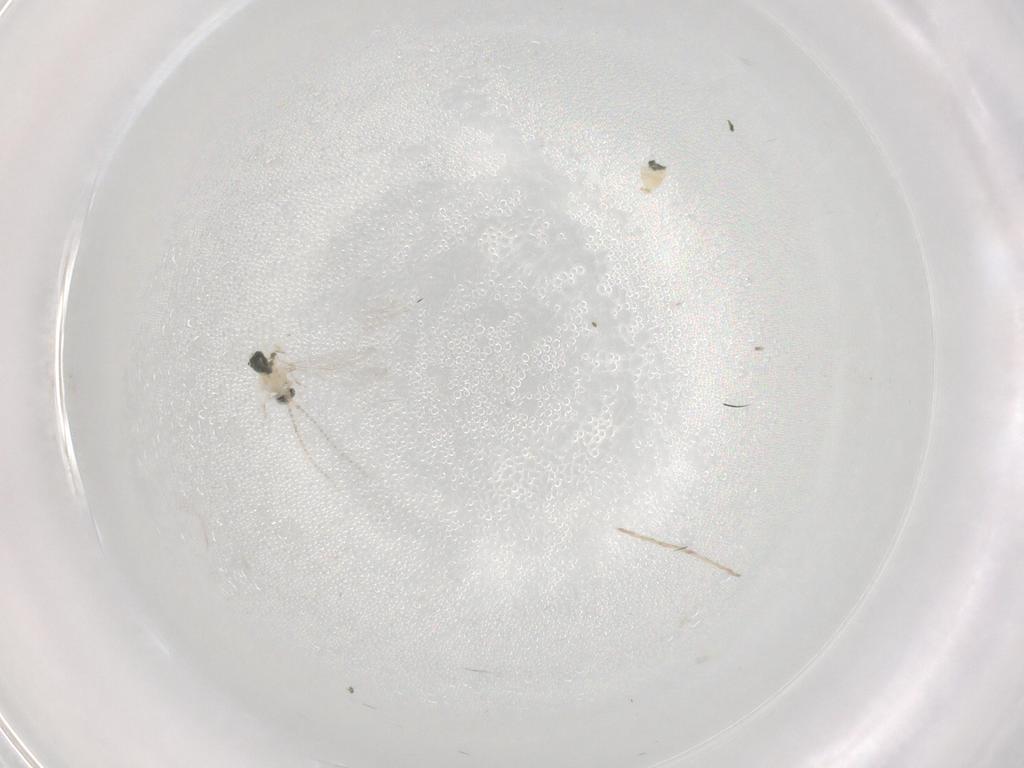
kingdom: Animalia
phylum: Arthropoda
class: Insecta
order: Diptera
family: Cecidomyiidae
